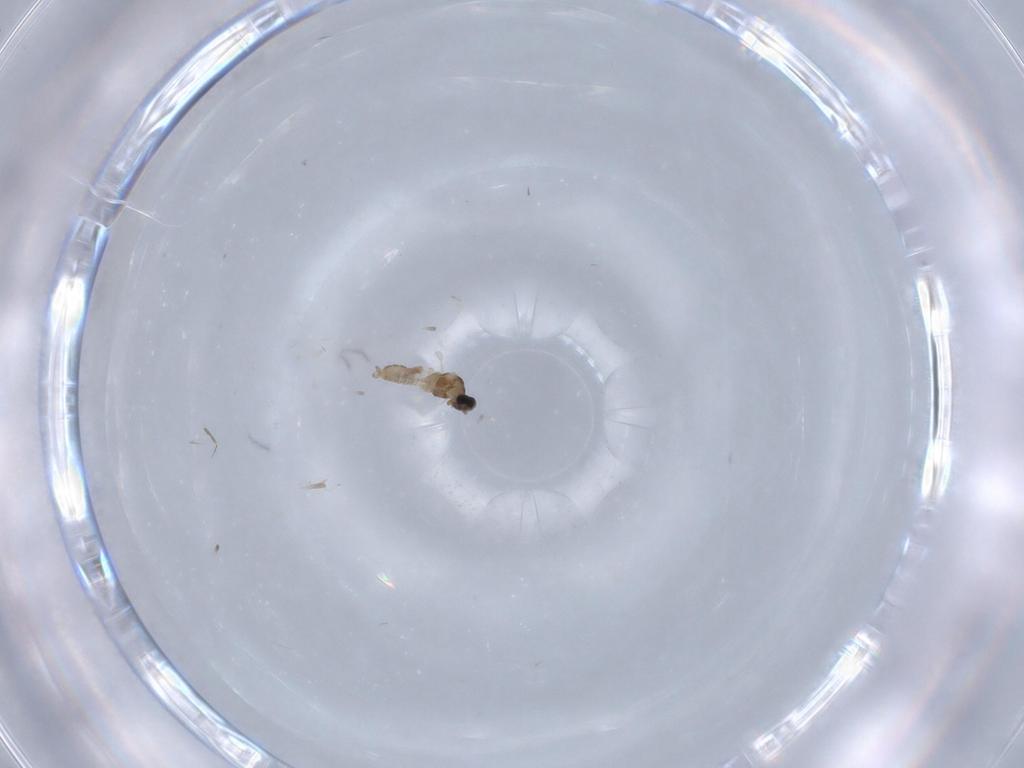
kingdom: Animalia
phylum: Arthropoda
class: Insecta
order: Diptera
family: Cecidomyiidae
